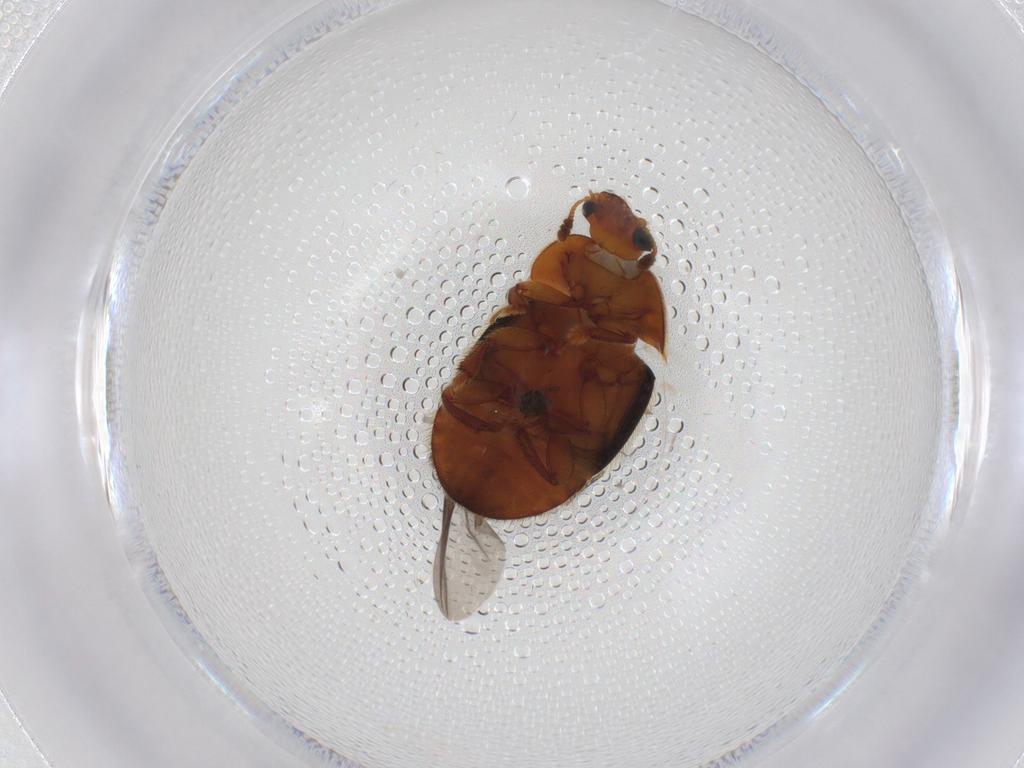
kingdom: Animalia
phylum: Arthropoda
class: Insecta
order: Coleoptera
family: Nitidulidae
